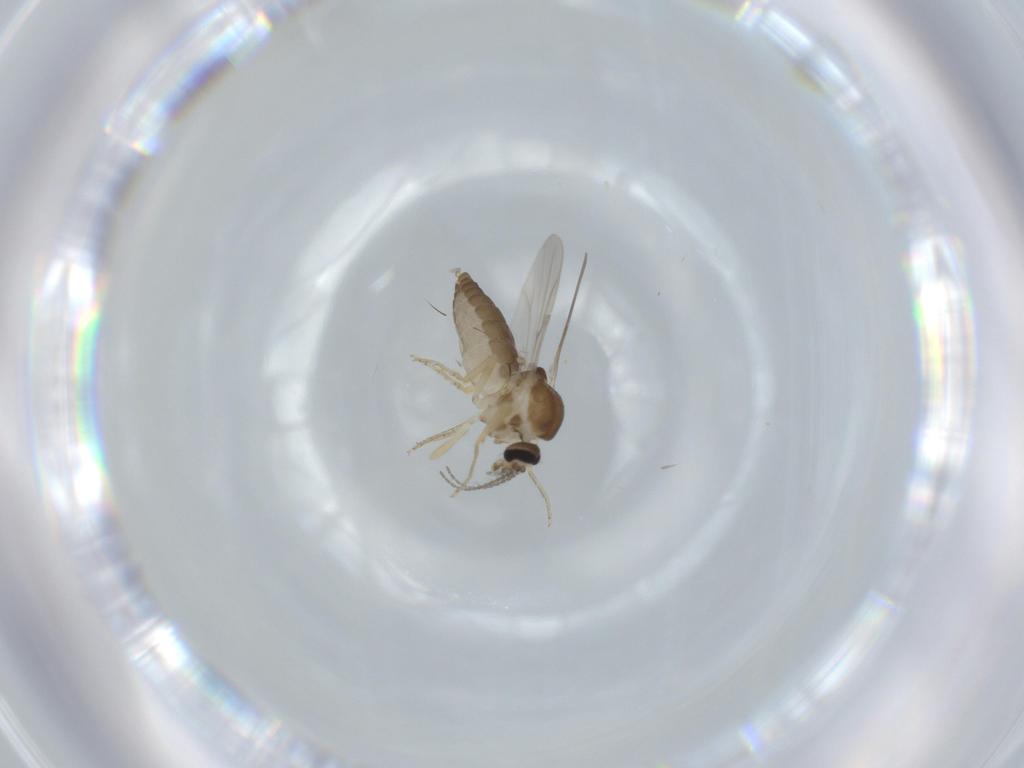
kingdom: Animalia
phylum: Arthropoda
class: Insecta
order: Diptera
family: Ceratopogonidae
